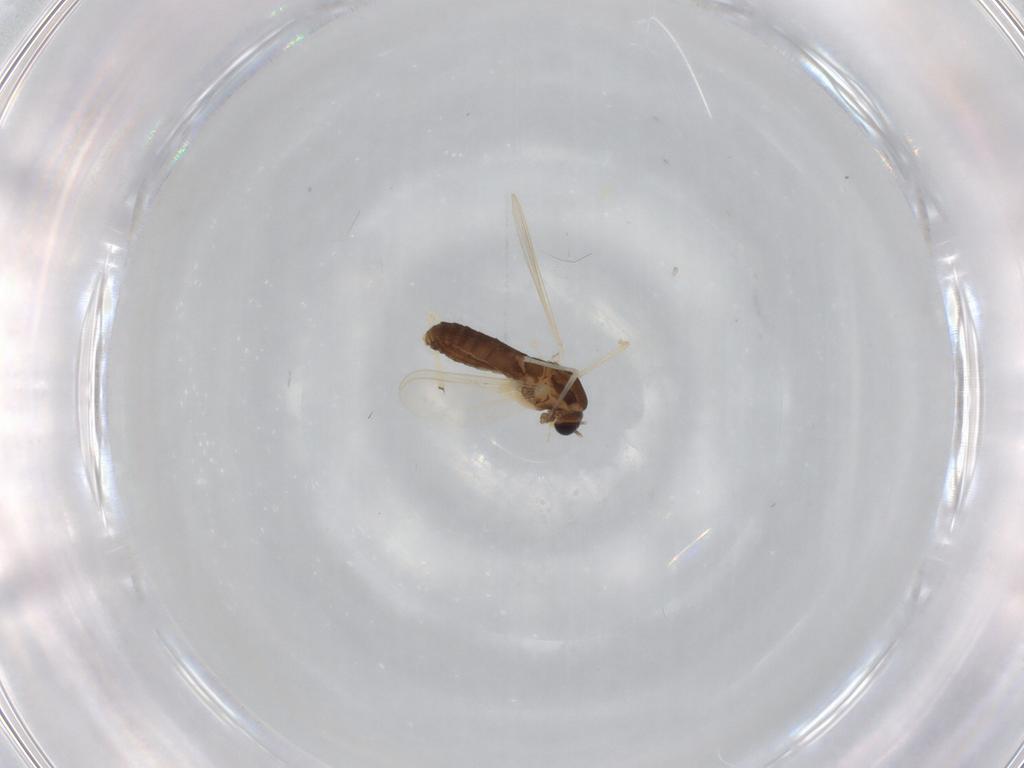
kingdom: Animalia
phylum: Arthropoda
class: Insecta
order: Diptera
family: Chironomidae
